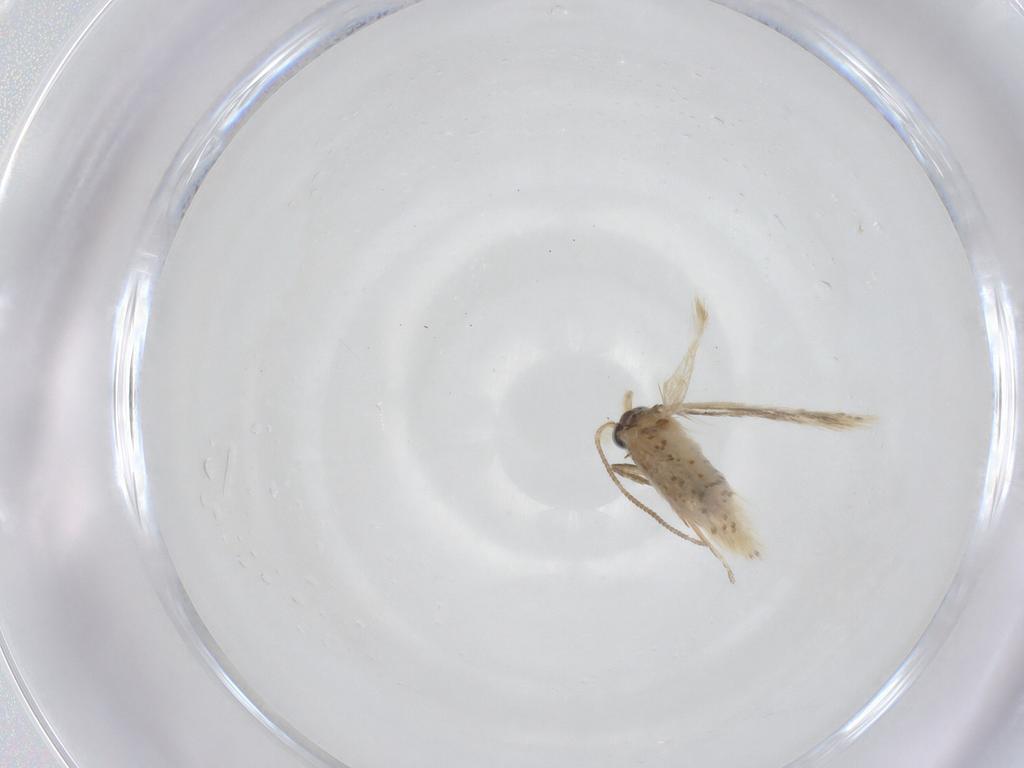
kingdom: Animalia
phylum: Arthropoda
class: Insecta
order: Lepidoptera
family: Nepticulidae
